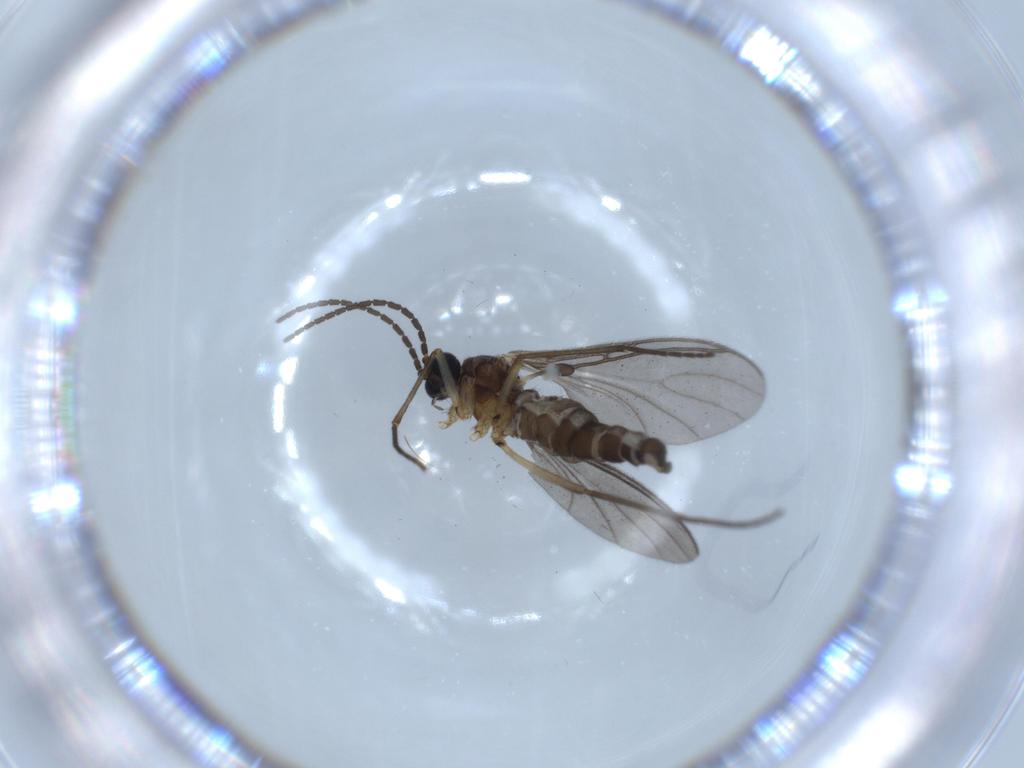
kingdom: Animalia
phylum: Arthropoda
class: Insecta
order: Diptera
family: Sciaridae
